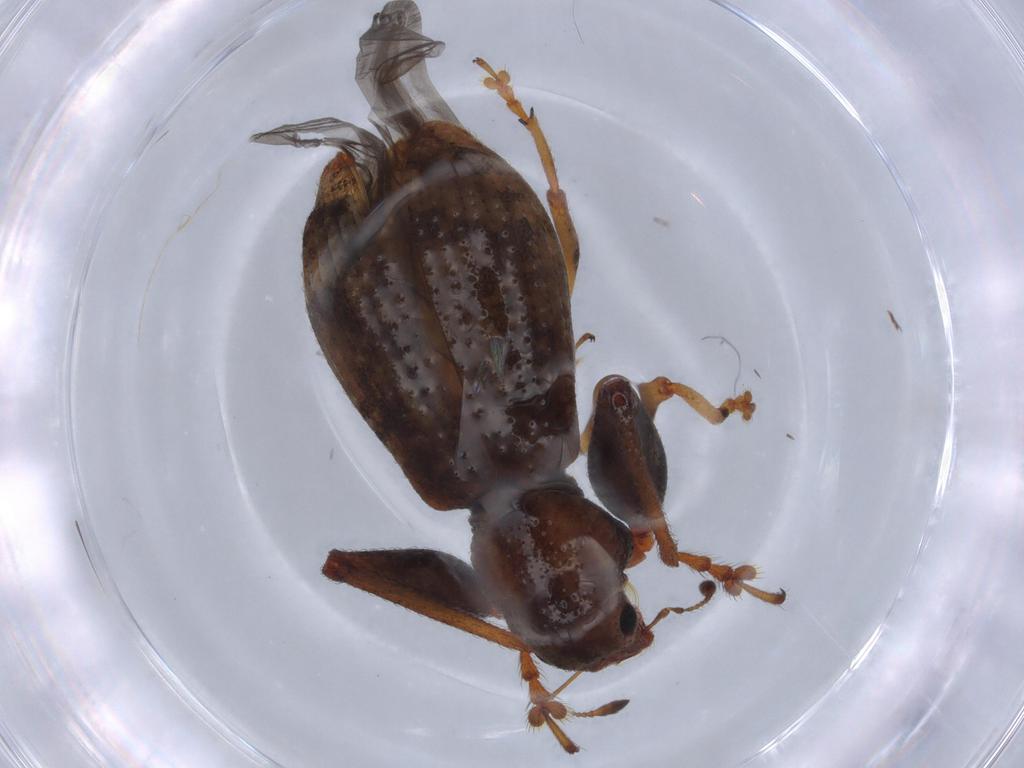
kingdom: Animalia
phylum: Arthropoda
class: Insecta
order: Coleoptera
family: Curculionidae
